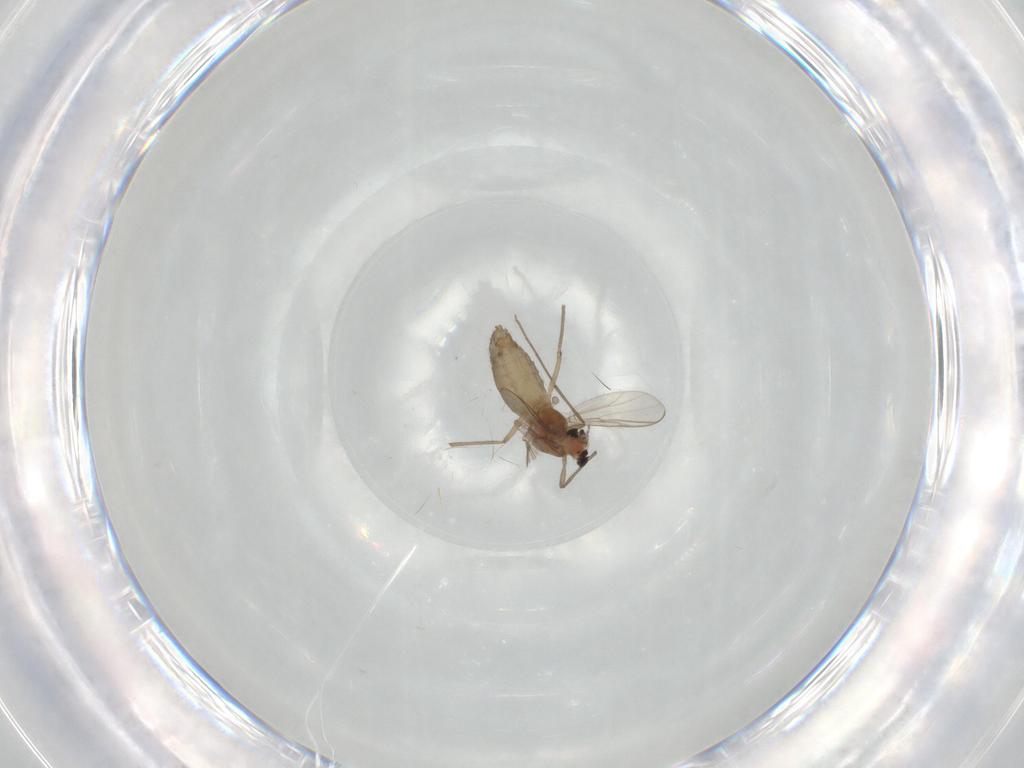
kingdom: Animalia
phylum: Arthropoda
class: Insecta
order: Diptera
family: Chironomidae
